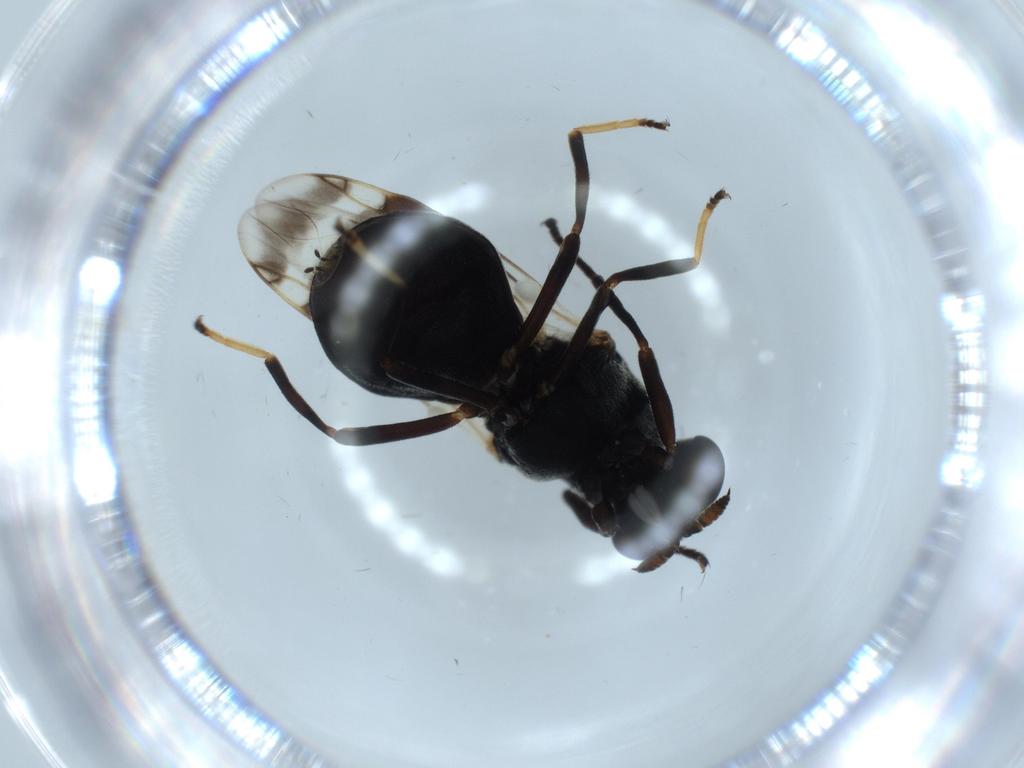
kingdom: Animalia
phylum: Arthropoda
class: Insecta
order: Diptera
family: Stratiomyidae
